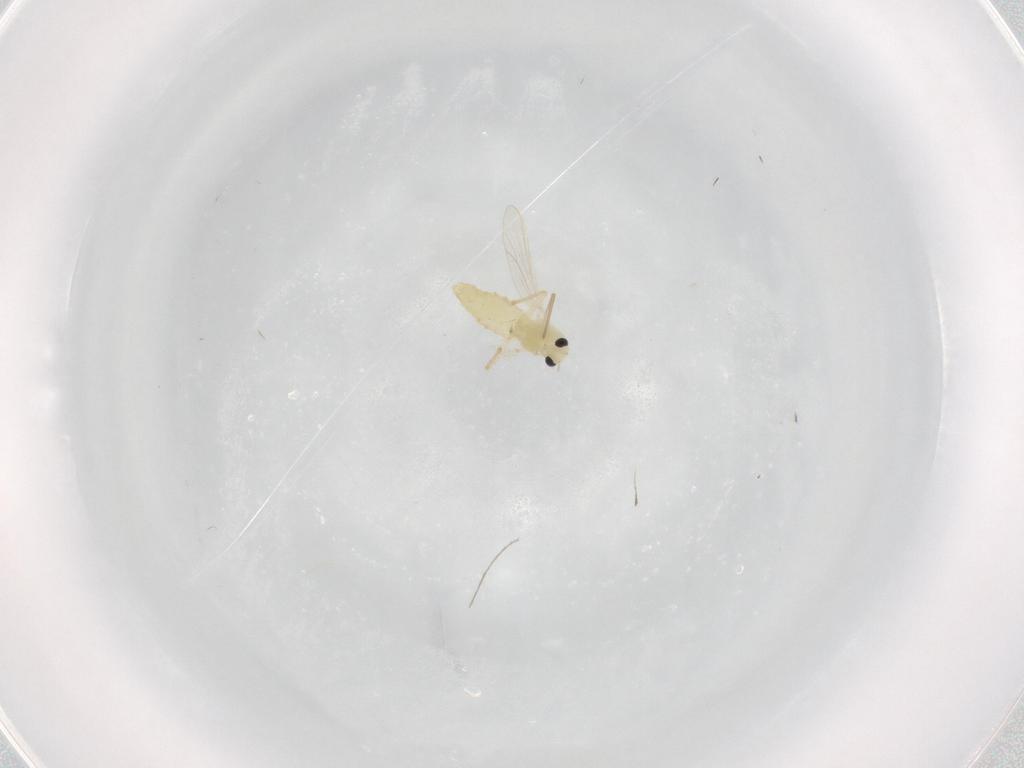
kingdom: Animalia
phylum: Arthropoda
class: Insecta
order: Diptera
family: Chironomidae
